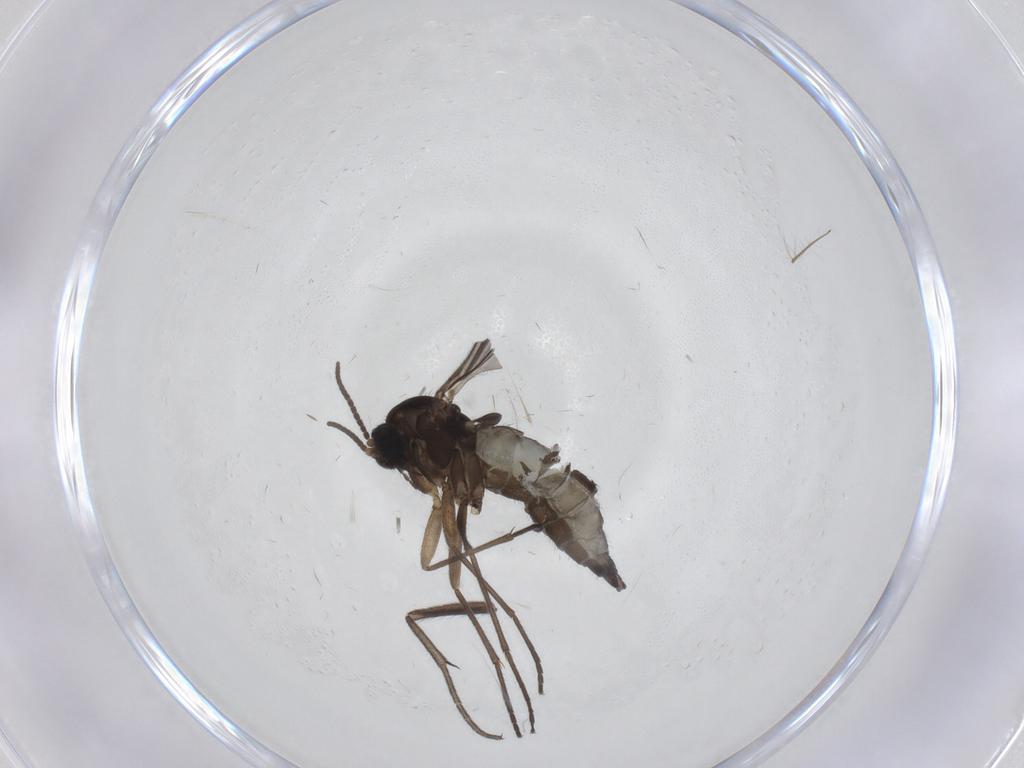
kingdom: Animalia
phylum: Arthropoda
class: Insecta
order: Diptera
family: Sciaridae
